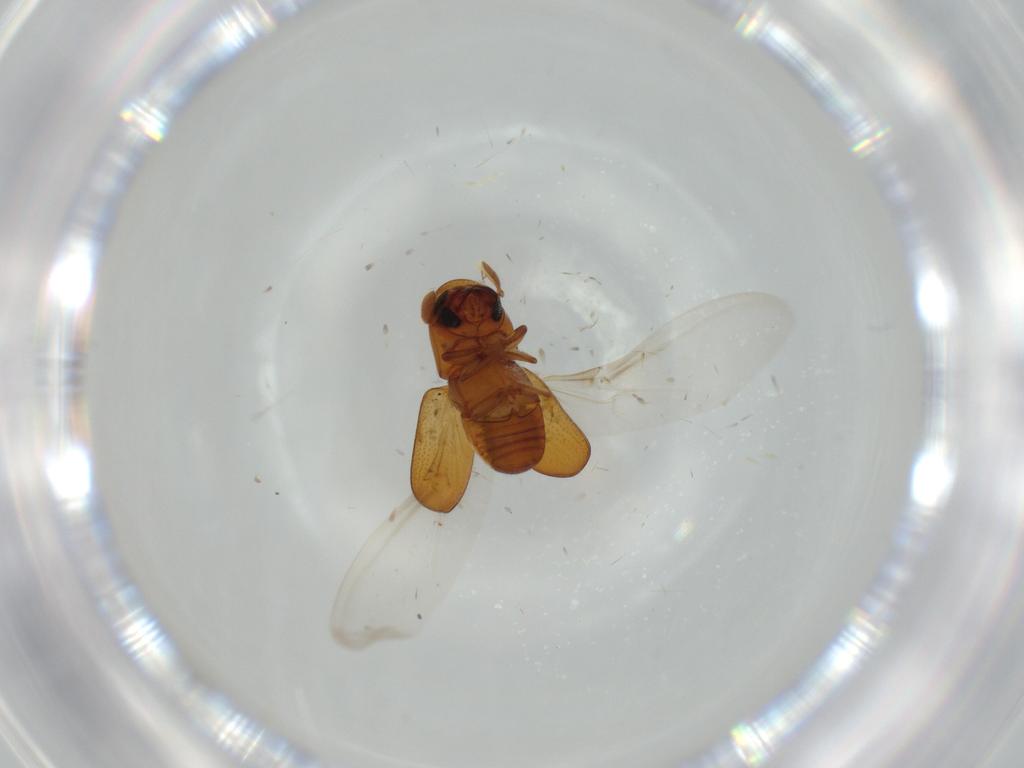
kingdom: Animalia
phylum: Arthropoda
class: Insecta
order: Coleoptera
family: Curculionidae
